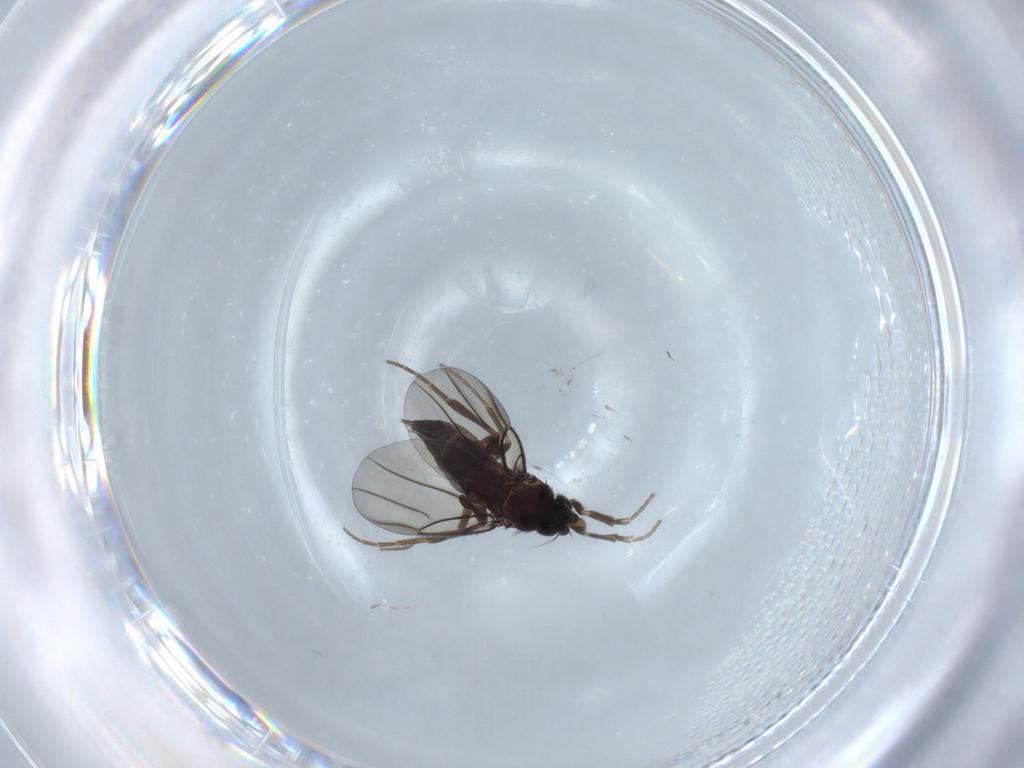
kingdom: Animalia
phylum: Arthropoda
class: Insecta
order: Diptera
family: Phoridae
